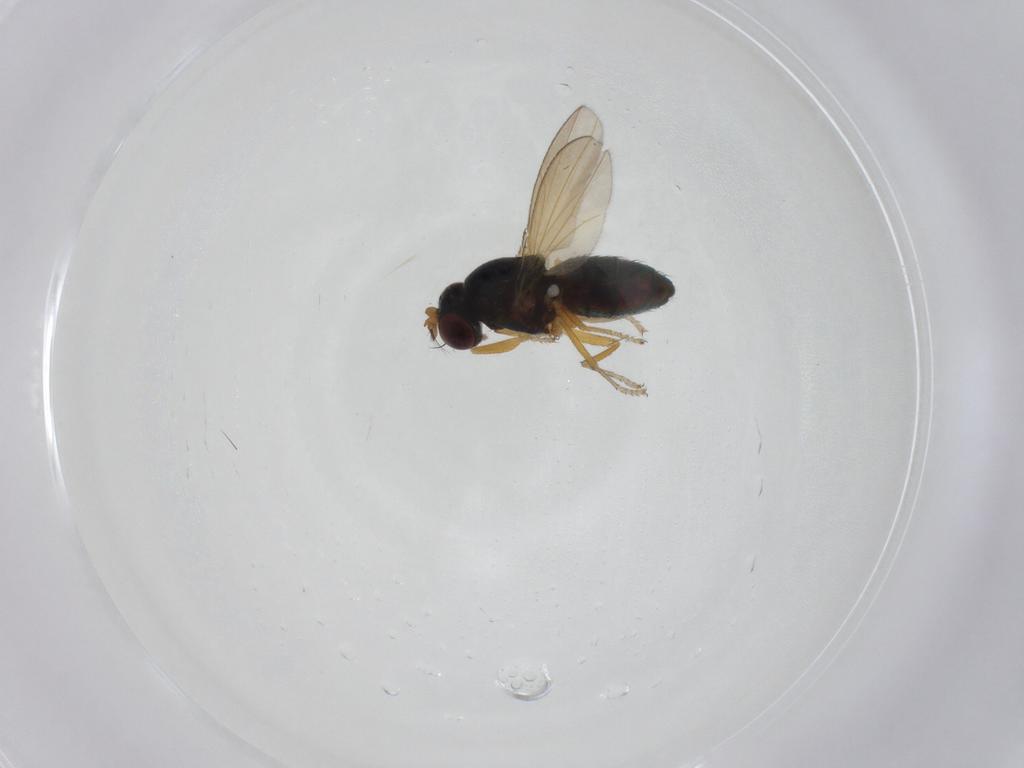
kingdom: Animalia
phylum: Arthropoda
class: Insecta
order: Diptera
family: Ephydridae
